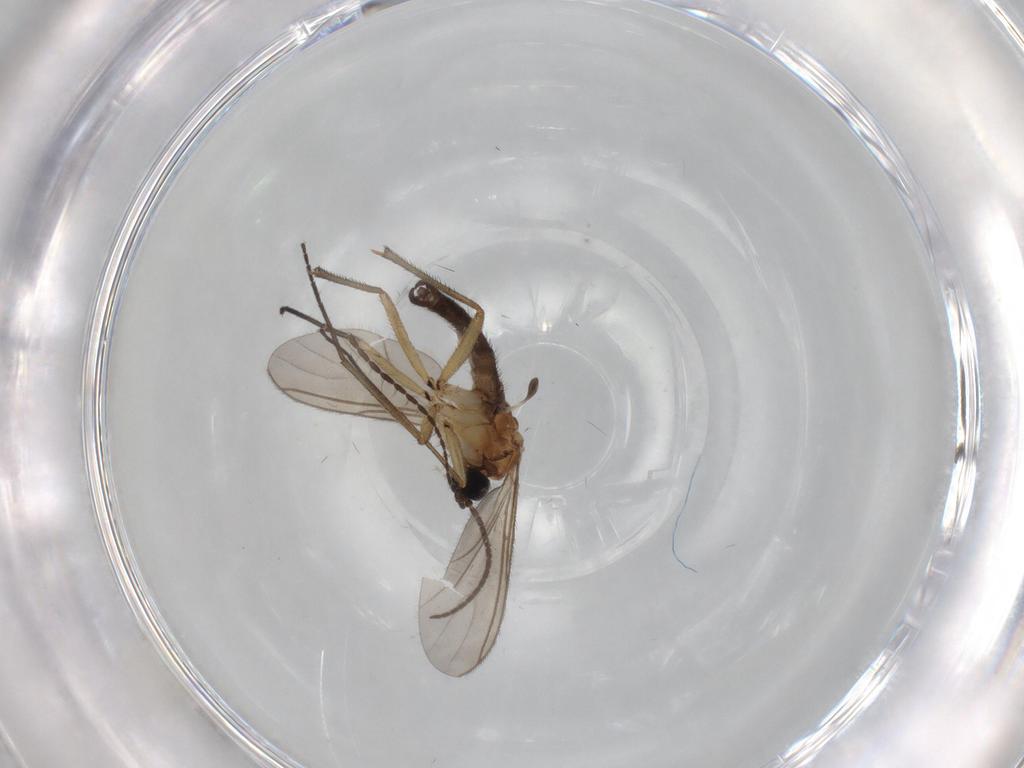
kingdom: Animalia
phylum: Arthropoda
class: Insecta
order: Diptera
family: Limoniidae
